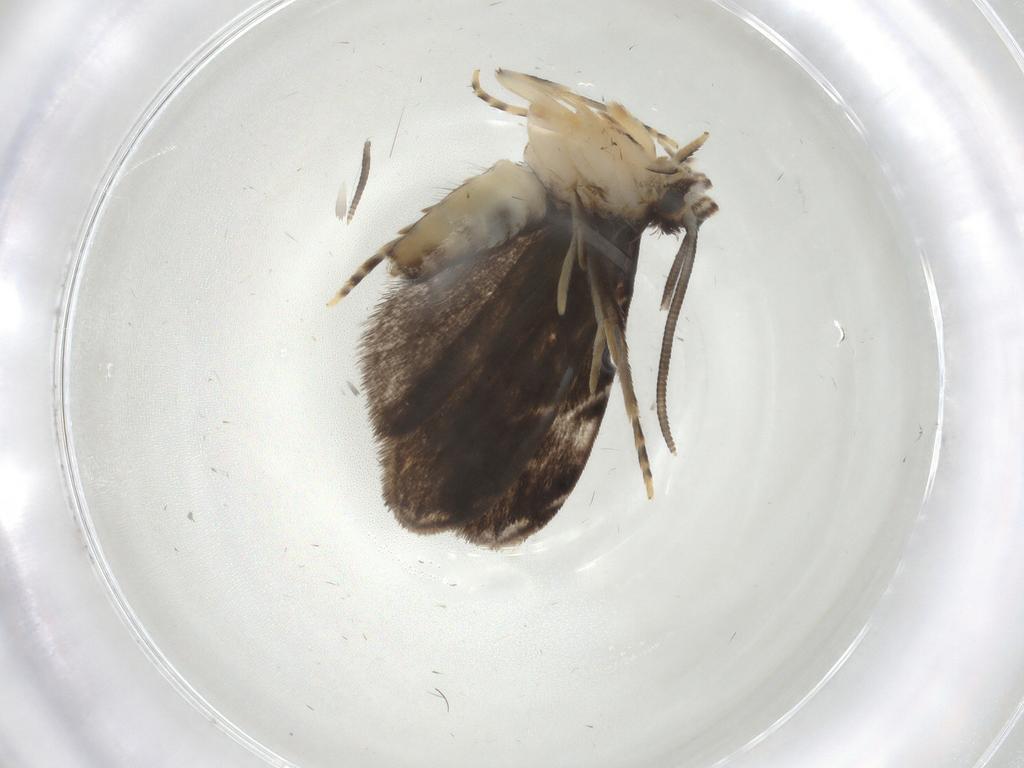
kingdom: Animalia
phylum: Arthropoda
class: Insecta
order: Lepidoptera
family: Dryadaulidae
